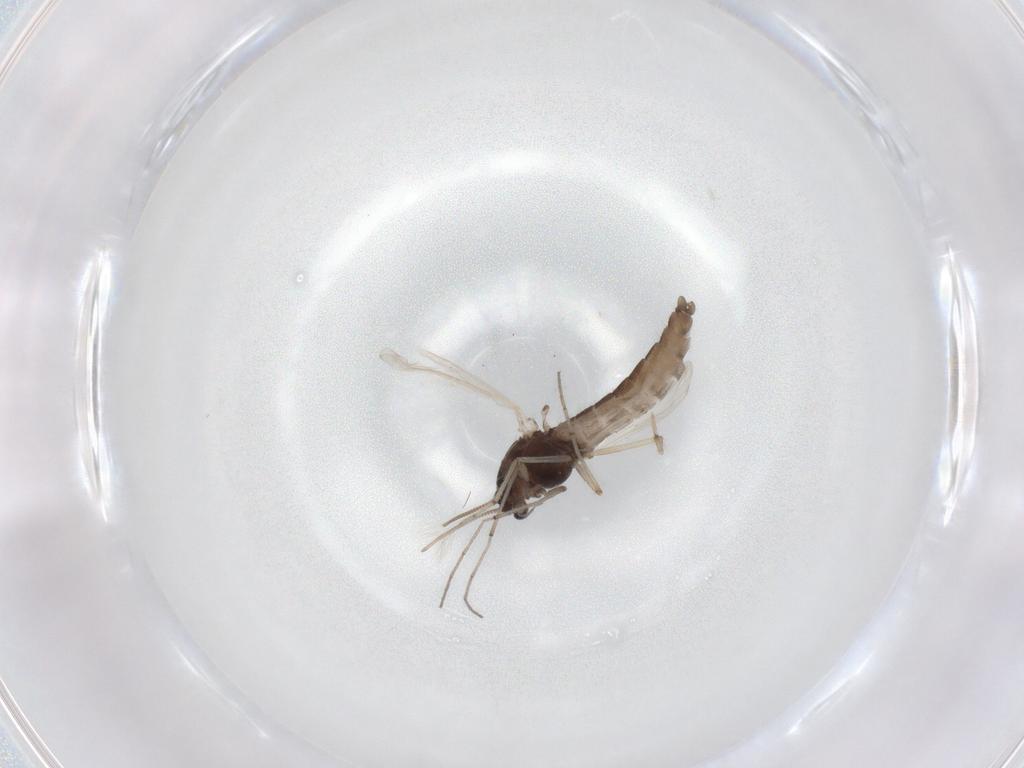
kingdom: Animalia
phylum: Arthropoda
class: Insecta
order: Diptera
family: Chironomidae
